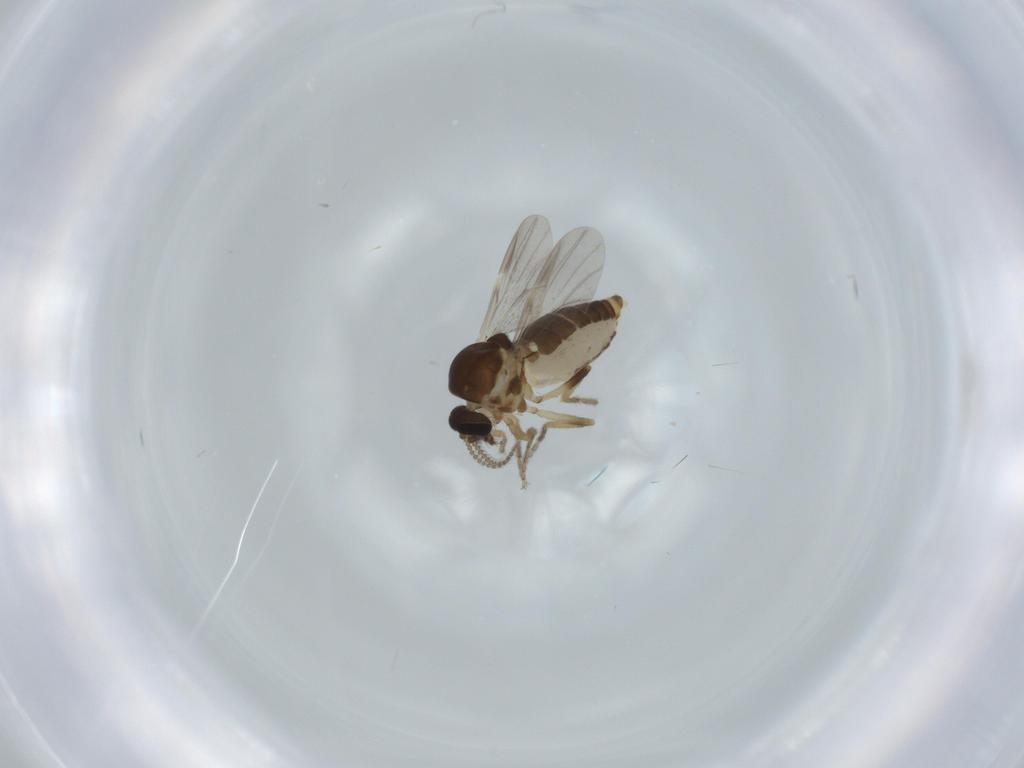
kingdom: Animalia
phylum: Arthropoda
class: Insecta
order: Diptera
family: Ceratopogonidae
